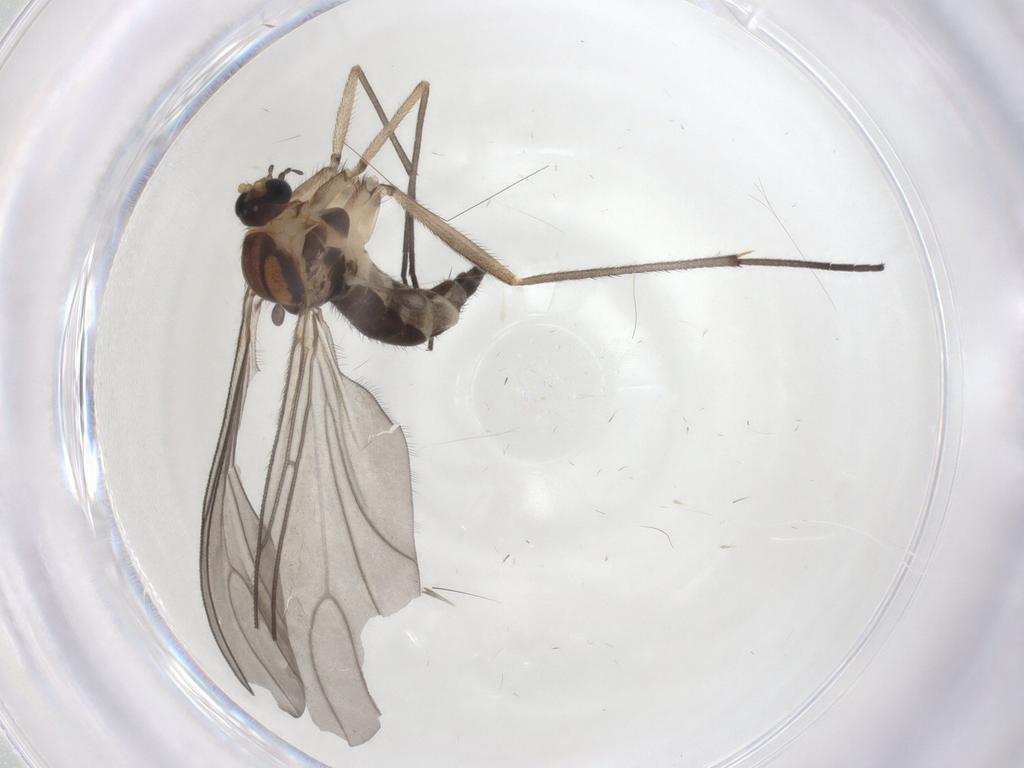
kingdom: Animalia
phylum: Arthropoda
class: Insecta
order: Diptera
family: Sciaridae
